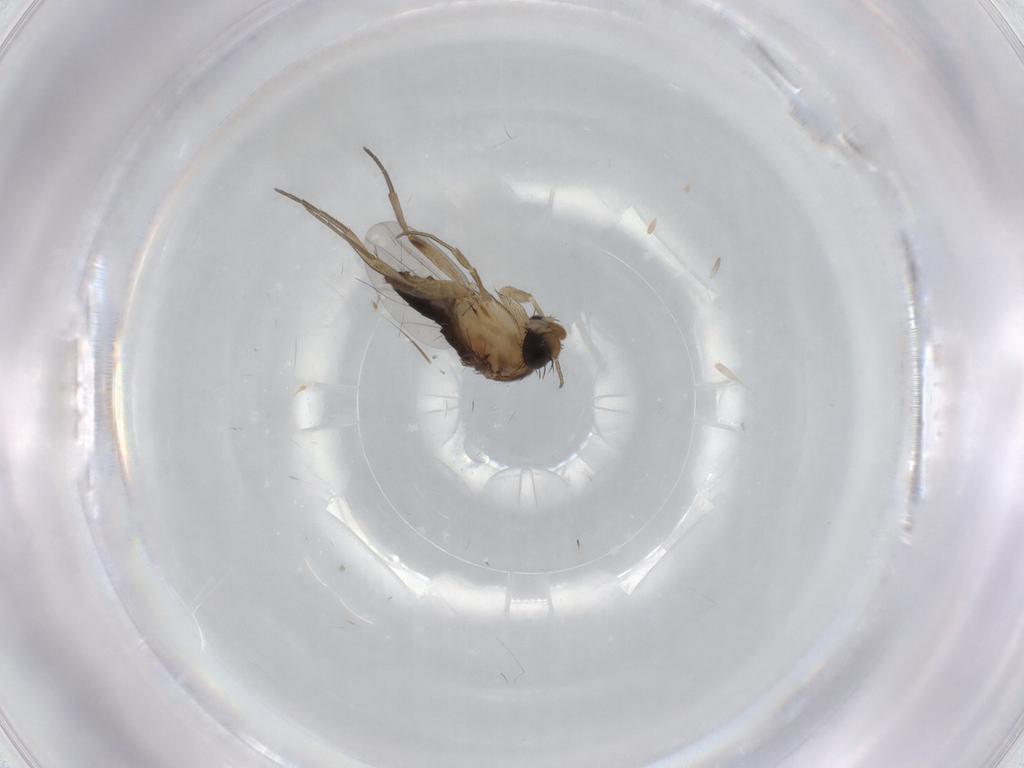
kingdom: Animalia
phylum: Arthropoda
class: Insecta
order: Diptera
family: Phoridae
